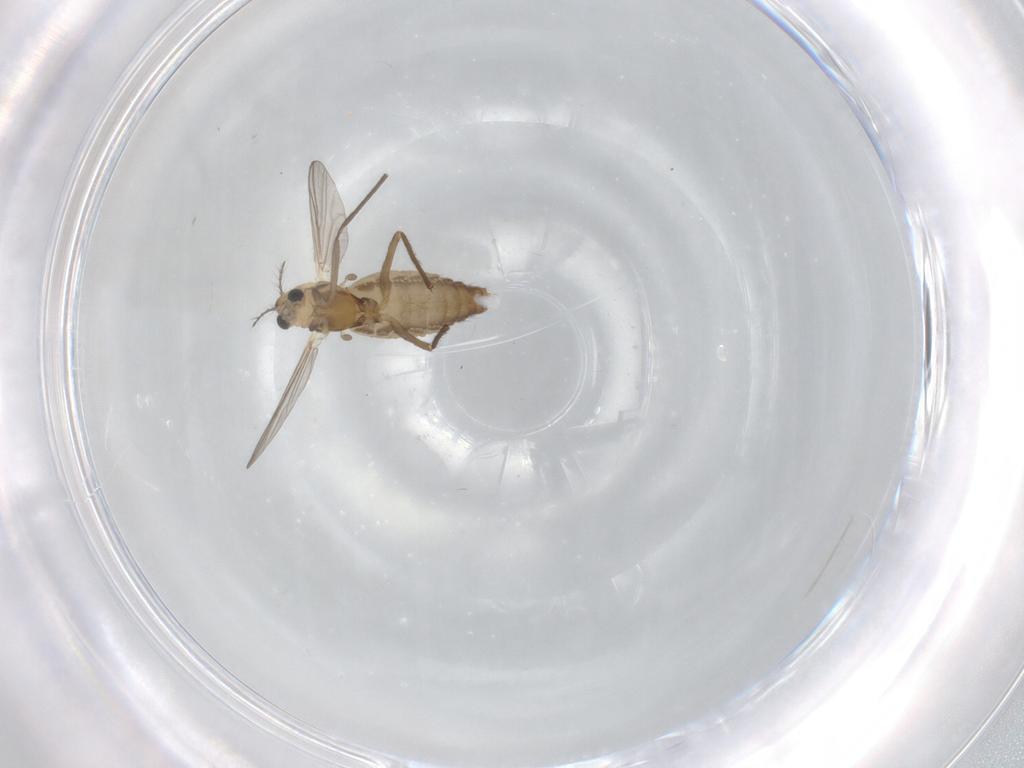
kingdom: Animalia
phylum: Arthropoda
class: Insecta
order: Diptera
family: Chironomidae
